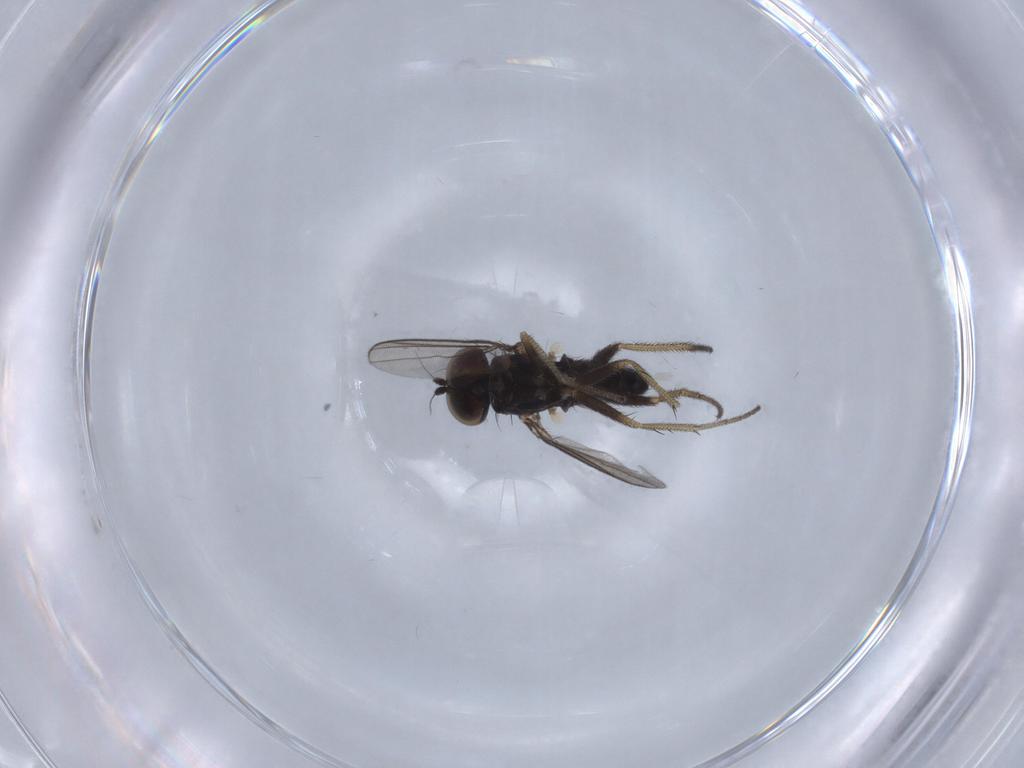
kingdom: Animalia
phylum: Arthropoda
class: Insecta
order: Diptera
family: Dolichopodidae
